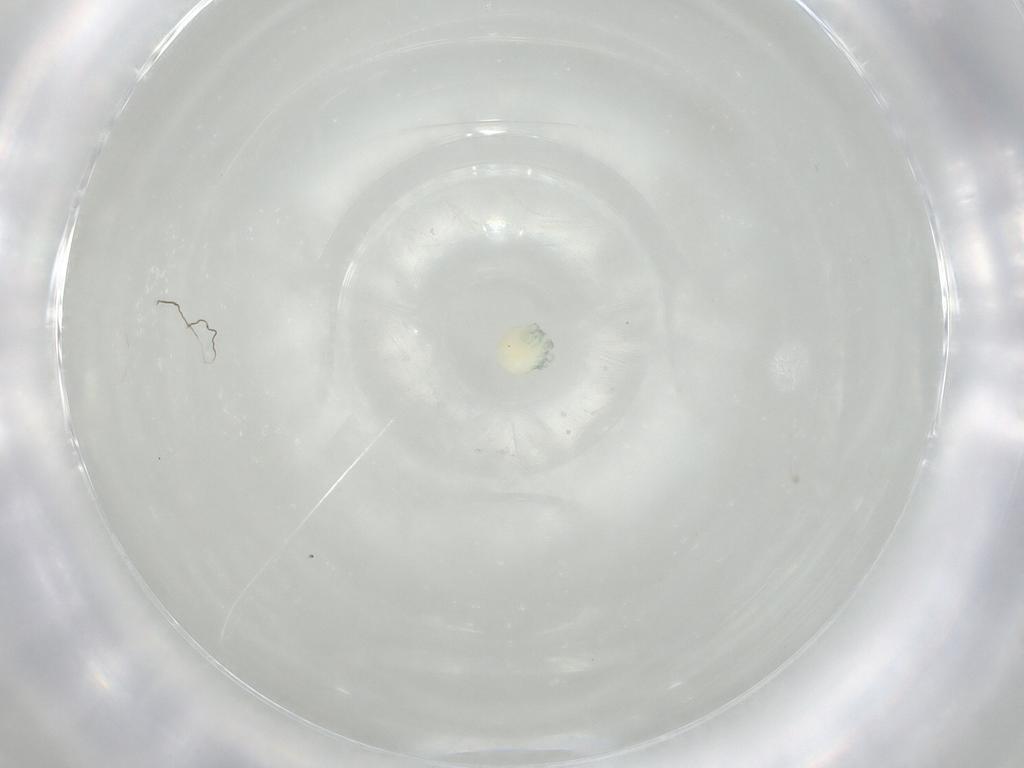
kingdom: Animalia
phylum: Arthropoda
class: Arachnida
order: Trombidiformes
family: Arrenuridae
